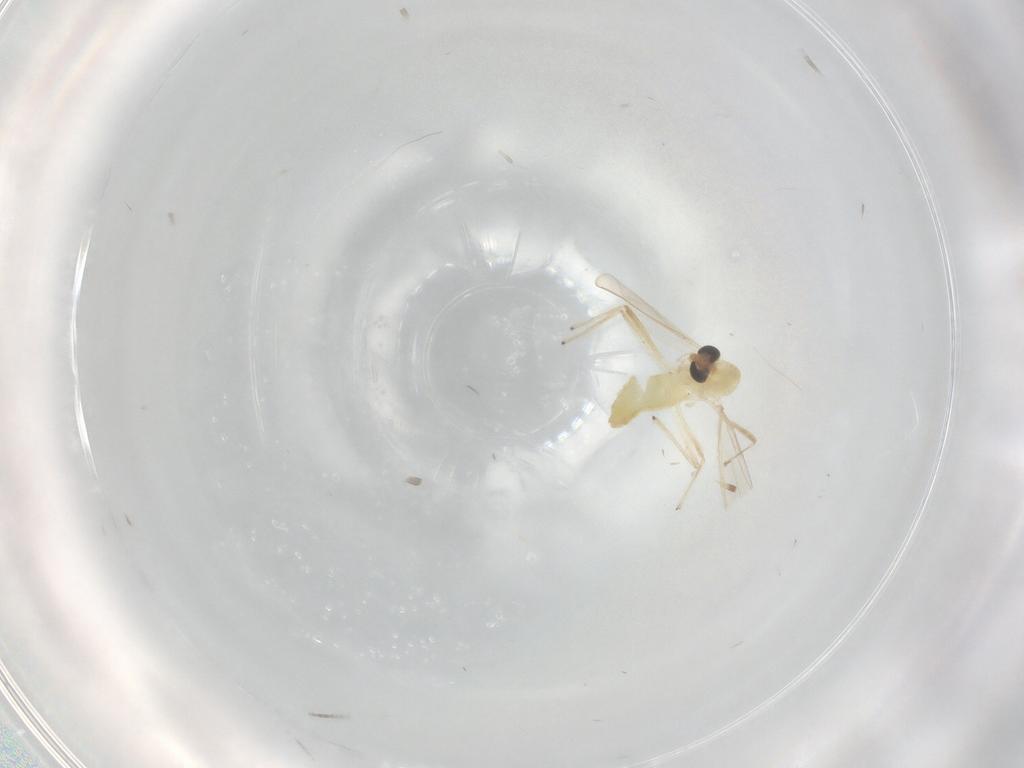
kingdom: Animalia
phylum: Arthropoda
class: Insecta
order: Diptera
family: Chironomidae
